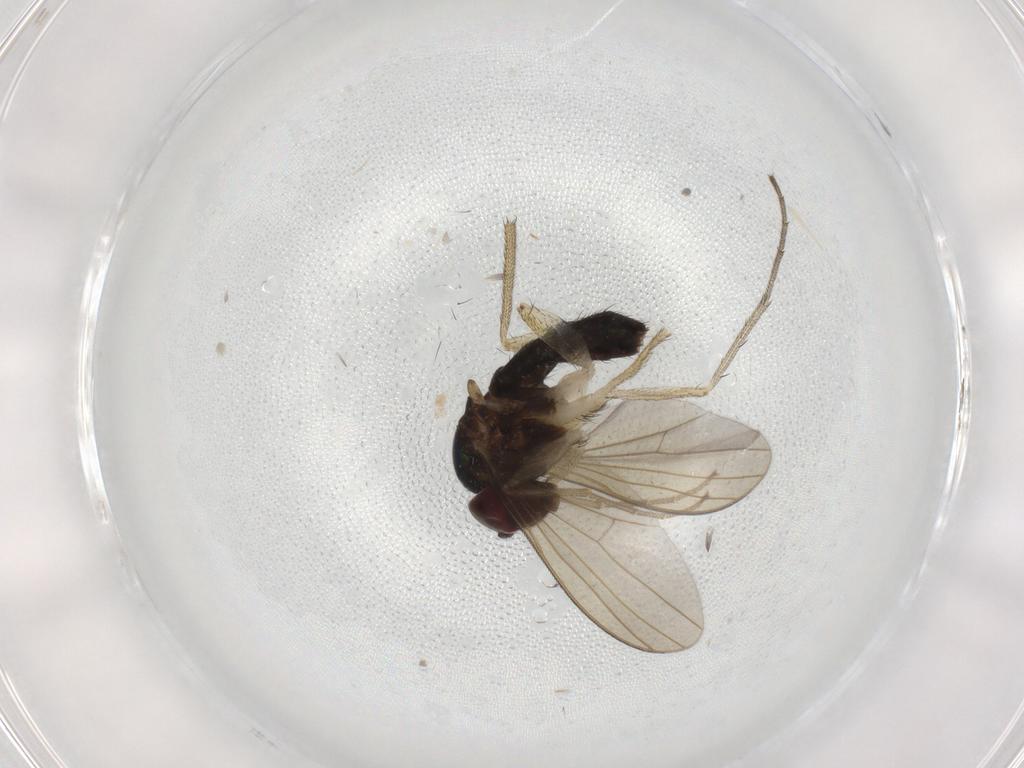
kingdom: Animalia
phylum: Arthropoda
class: Insecta
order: Diptera
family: Dolichopodidae
